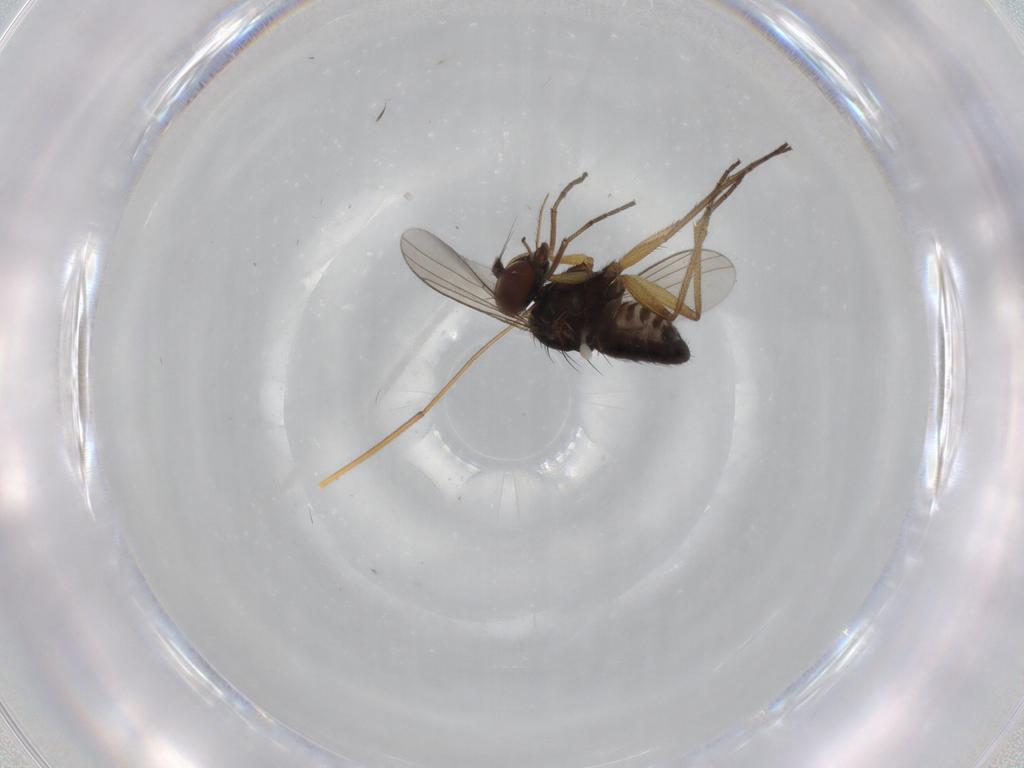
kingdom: Animalia
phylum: Arthropoda
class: Insecta
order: Diptera
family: Dolichopodidae
